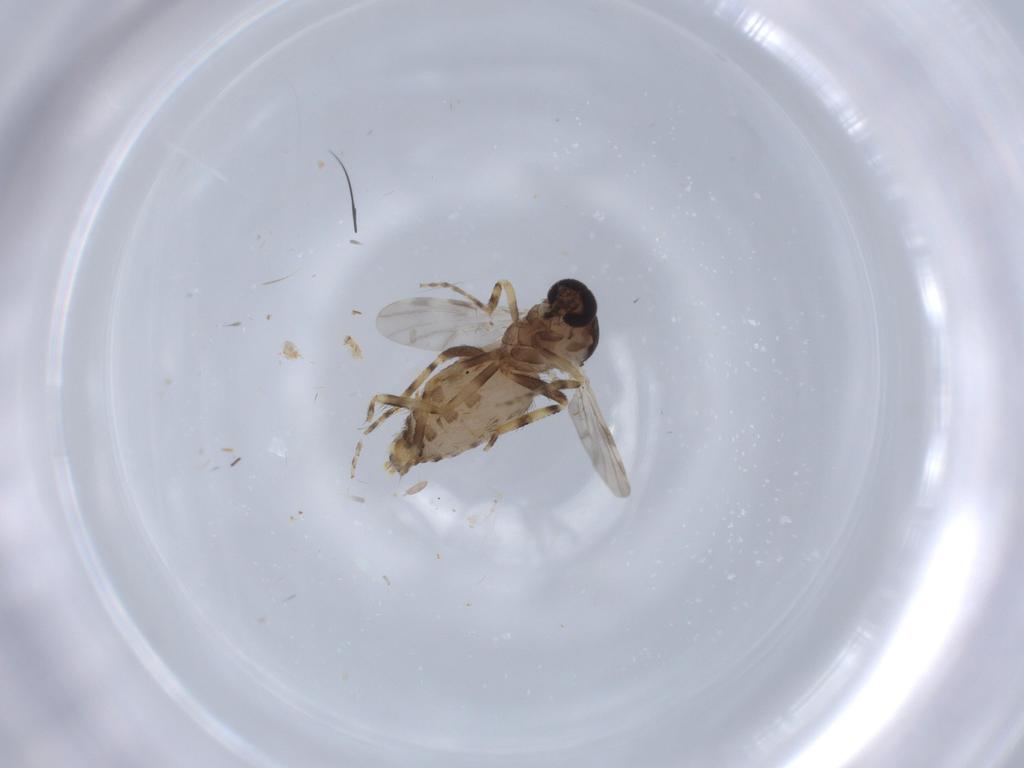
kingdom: Animalia
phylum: Arthropoda
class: Insecta
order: Diptera
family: Ceratopogonidae
